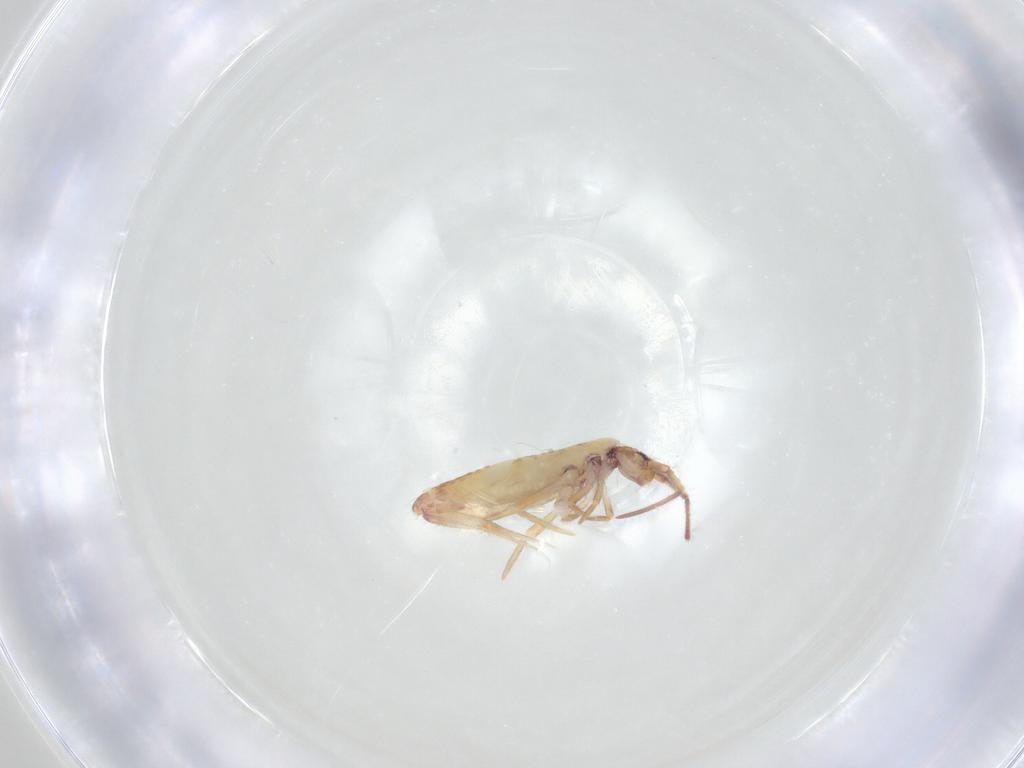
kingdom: Animalia
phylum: Arthropoda
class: Collembola
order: Entomobryomorpha
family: Entomobryidae
